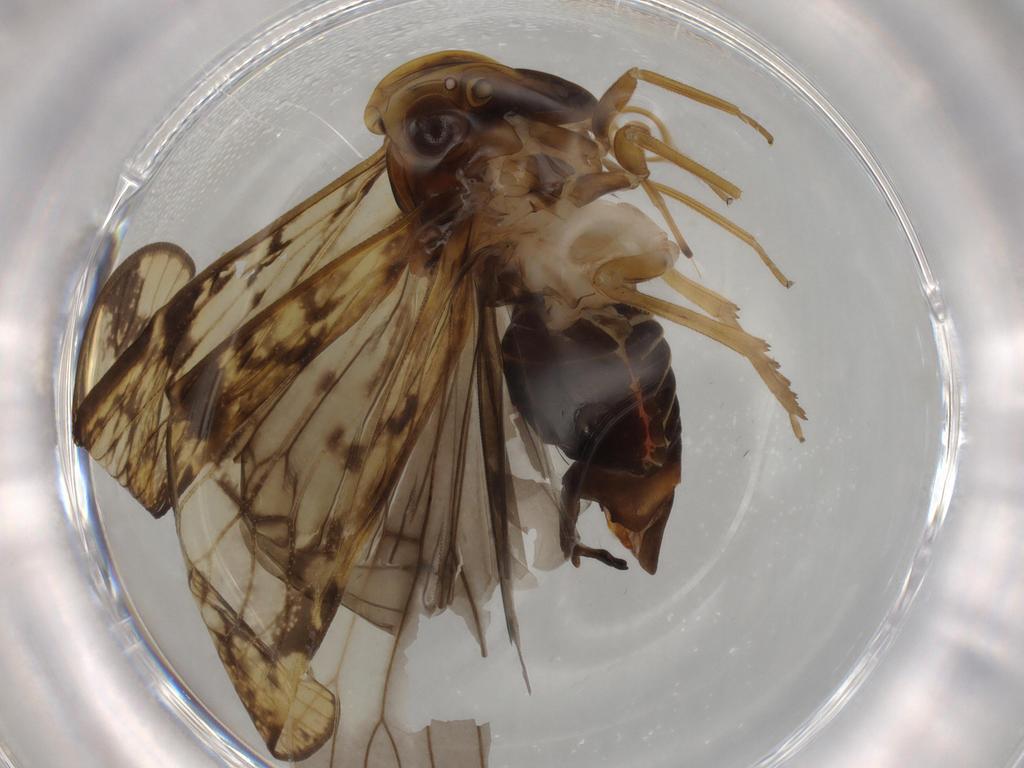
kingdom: Animalia
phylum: Arthropoda
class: Insecta
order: Hemiptera
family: Cixiidae
